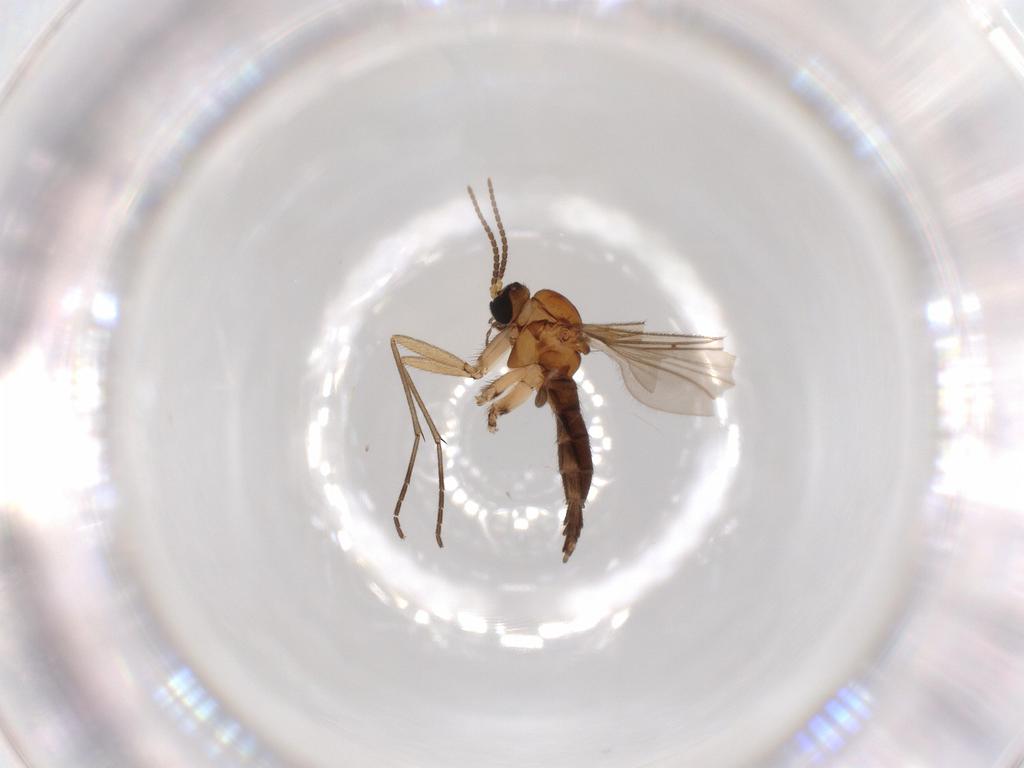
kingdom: Animalia
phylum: Arthropoda
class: Insecta
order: Diptera
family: Sciaridae
